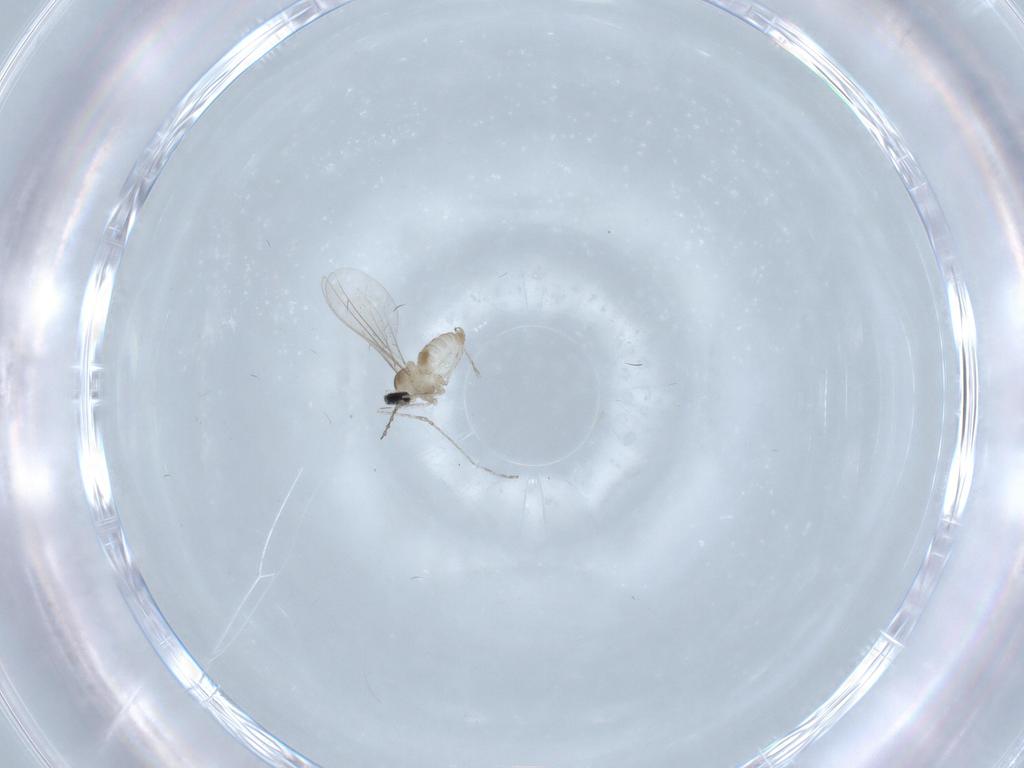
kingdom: Animalia
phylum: Arthropoda
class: Insecta
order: Diptera
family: Cecidomyiidae
